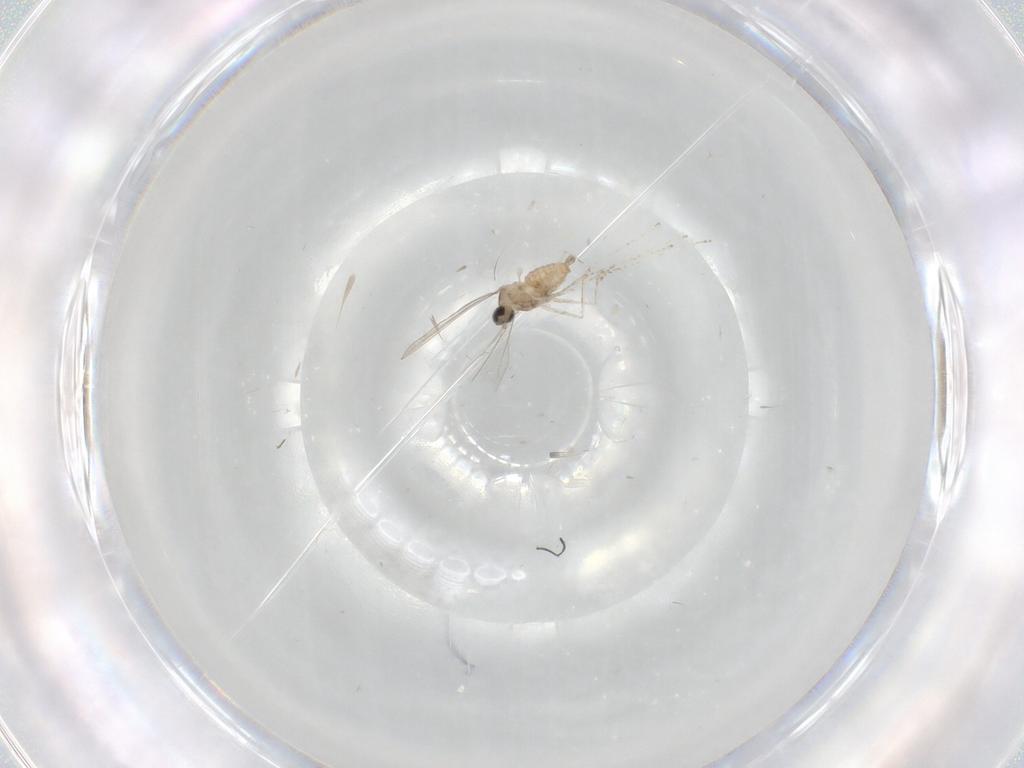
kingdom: Animalia
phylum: Arthropoda
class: Insecta
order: Diptera
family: Cecidomyiidae
